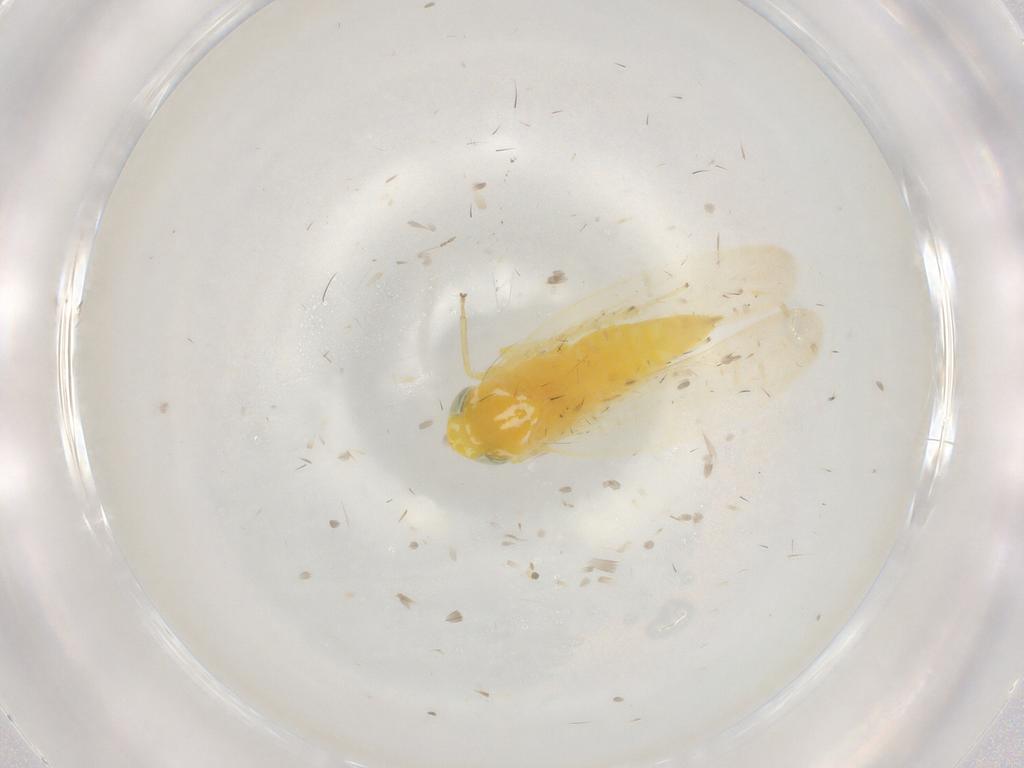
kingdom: Animalia
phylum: Arthropoda
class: Insecta
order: Hemiptera
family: Cicadellidae
